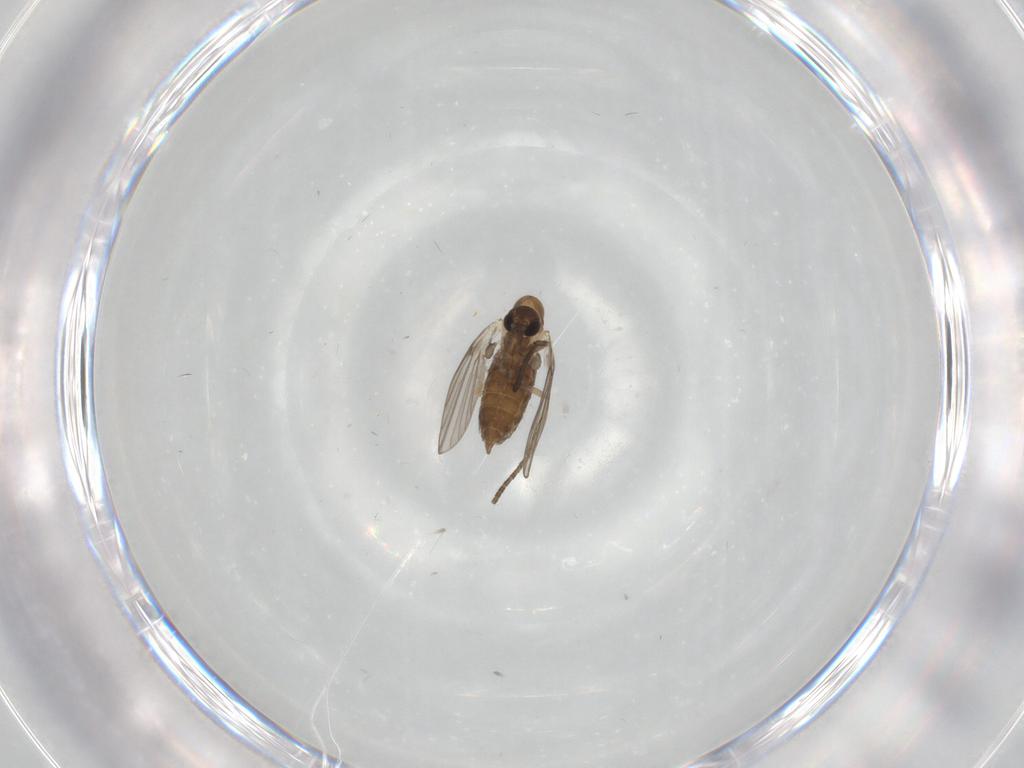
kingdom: Animalia
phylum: Arthropoda
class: Insecta
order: Diptera
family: Psychodidae
